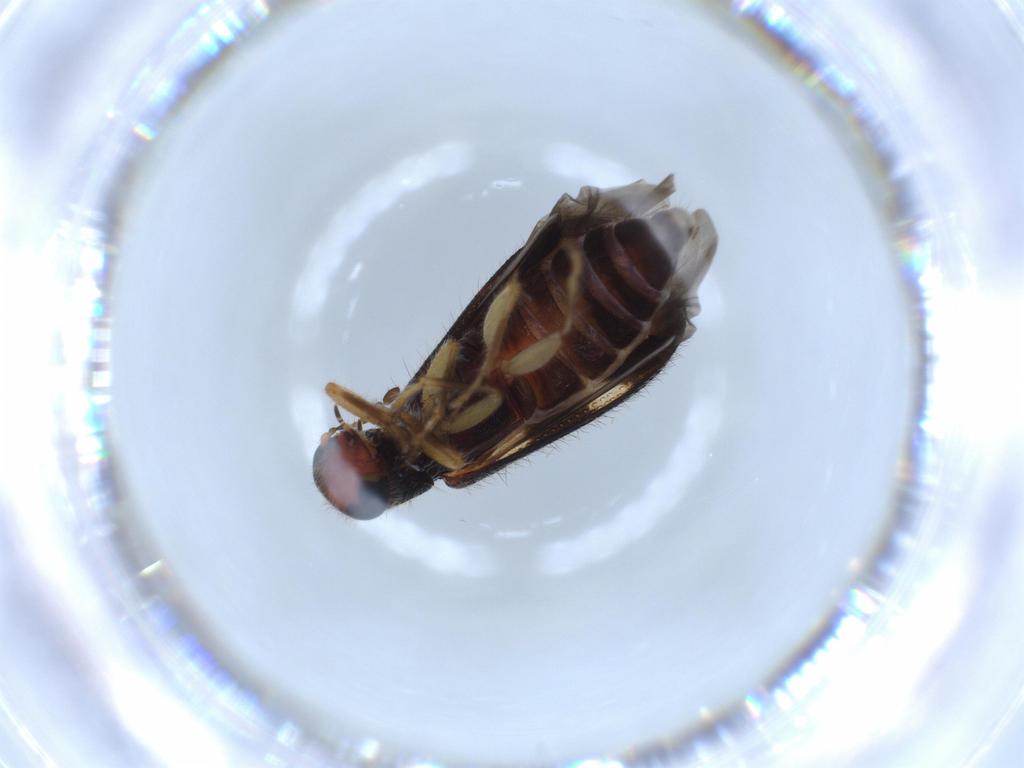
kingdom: Animalia
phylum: Arthropoda
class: Insecta
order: Coleoptera
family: Cleridae
